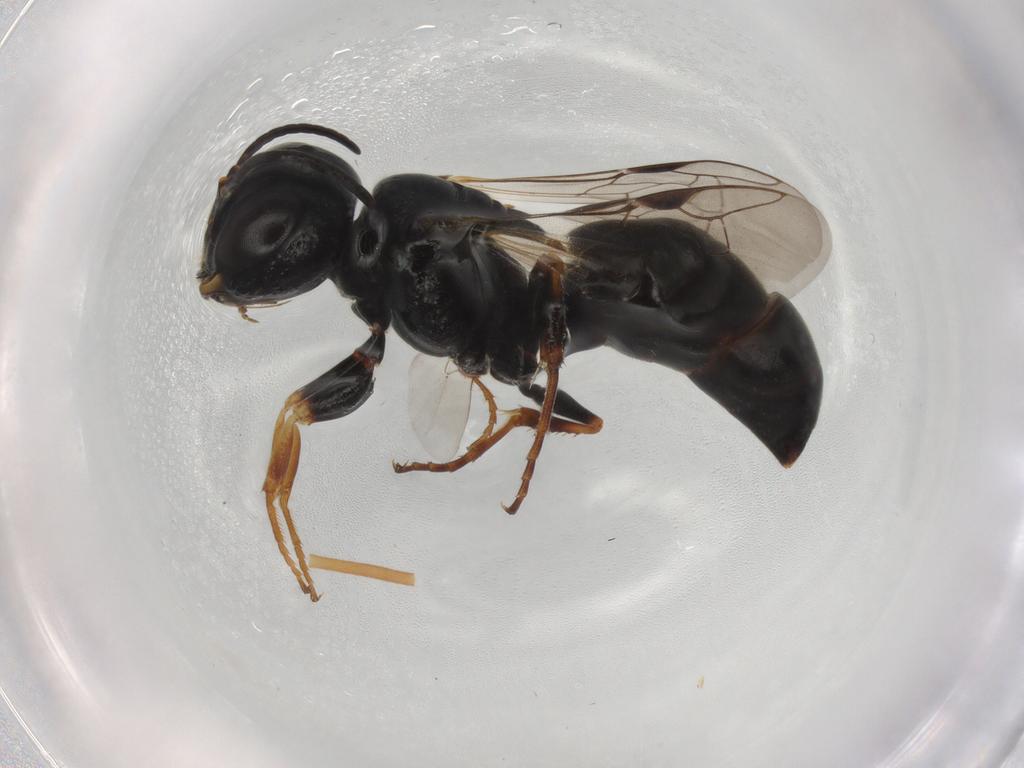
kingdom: Animalia
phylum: Arthropoda
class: Insecta
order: Hymenoptera
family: Crabronidae
